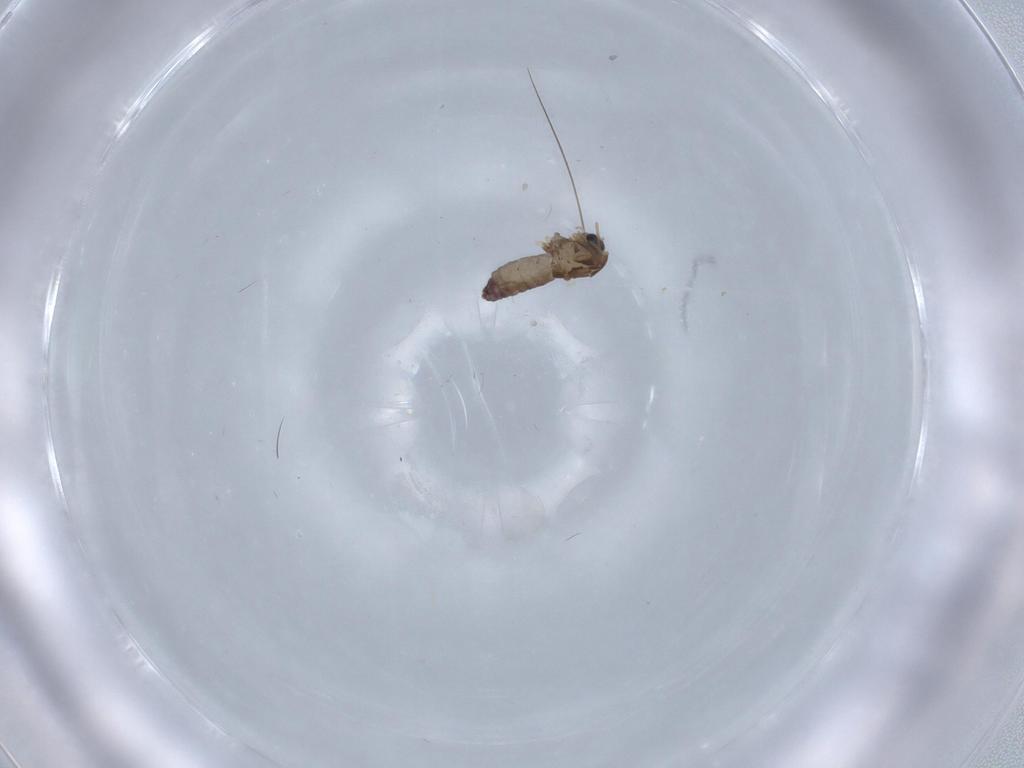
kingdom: Animalia
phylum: Arthropoda
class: Insecta
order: Diptera
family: Chironomidae
